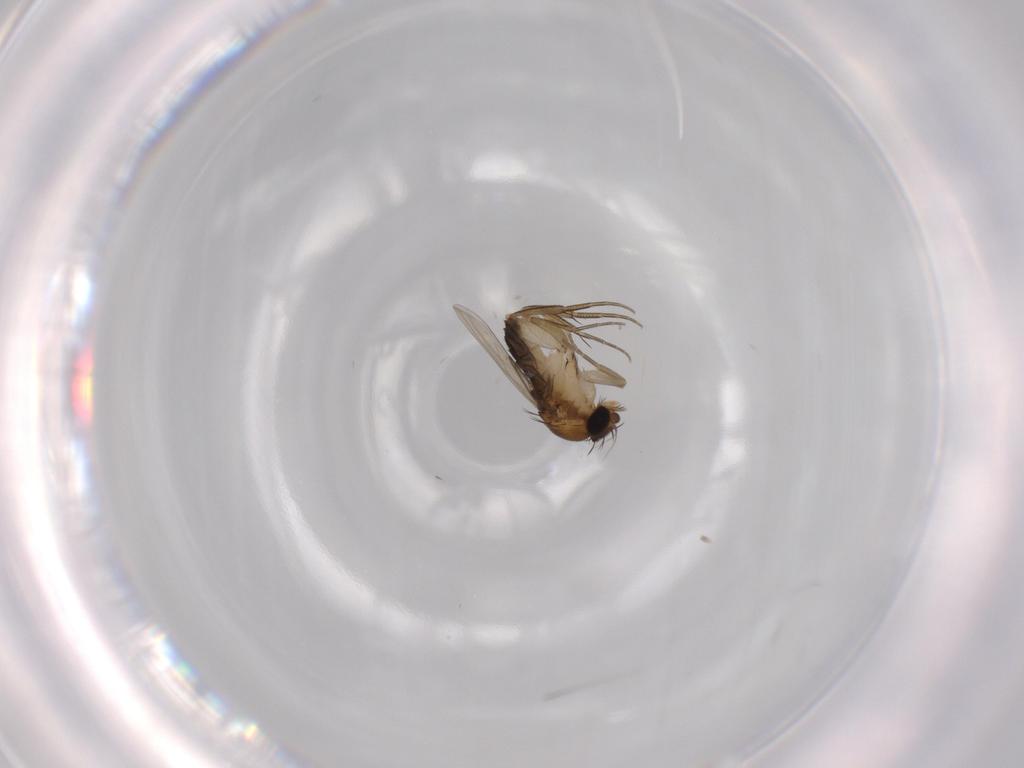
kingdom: Animalia
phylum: Arthropoda
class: Insecta
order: Diptera
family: Phoridae
